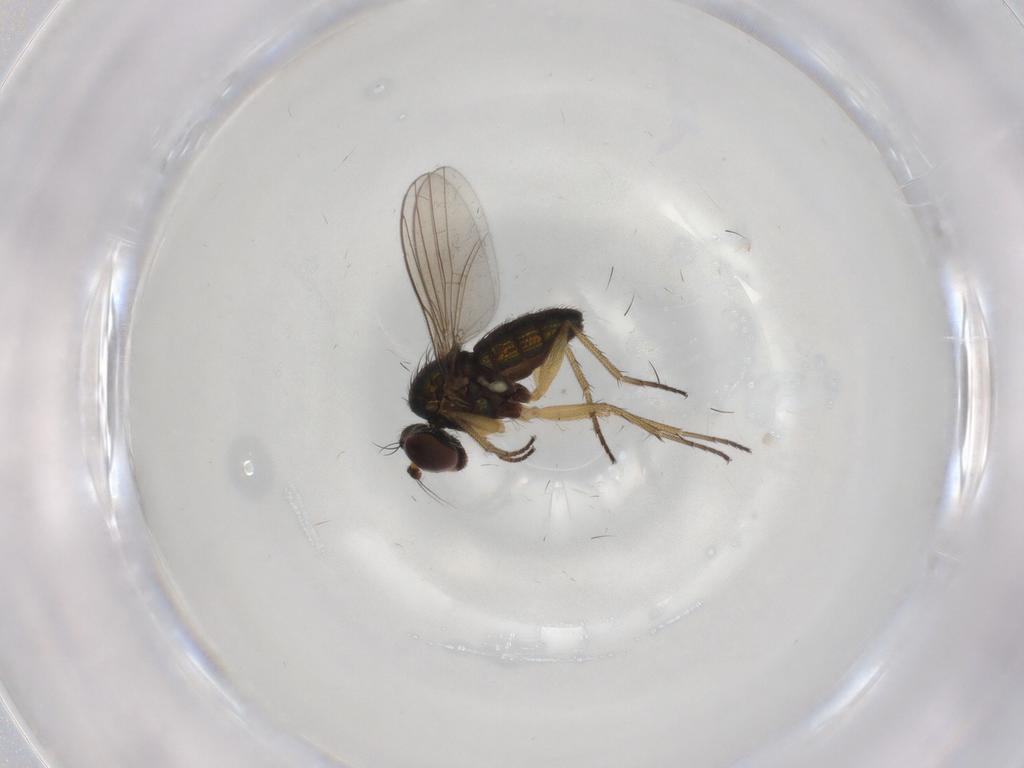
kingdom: Animalia
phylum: Arthropoda
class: Insecta
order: Diptera
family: Dolichopodidae
